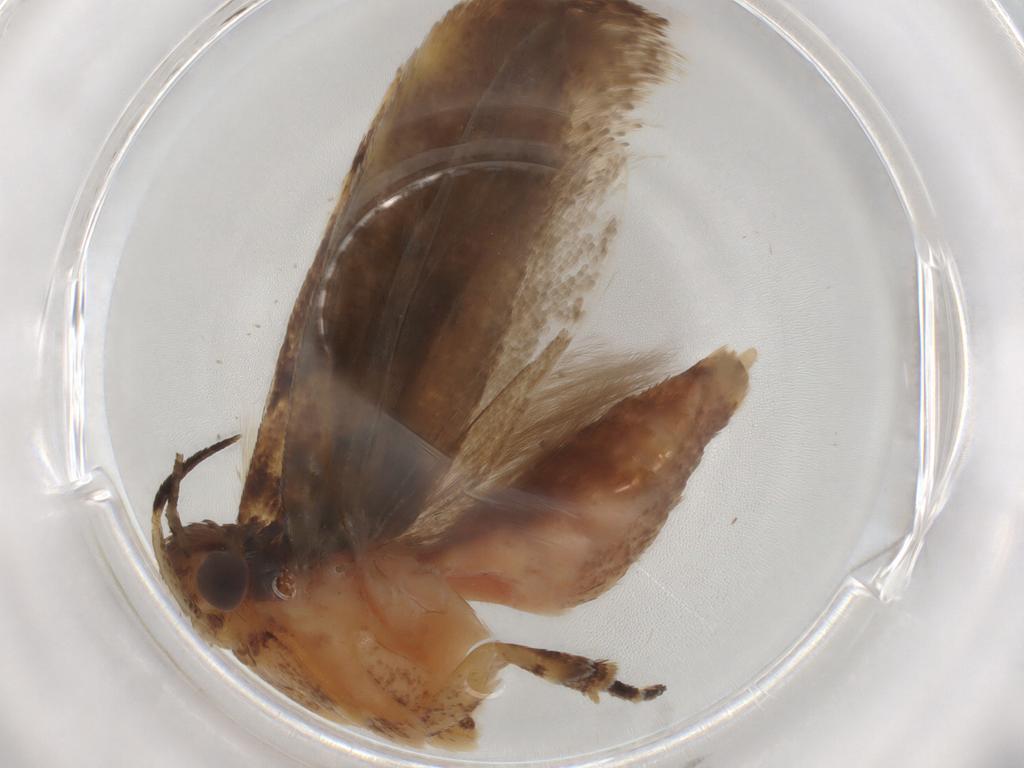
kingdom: Animalia
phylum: Arthropoda
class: Insecta
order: Lepidoptera
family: Gelechiidae
